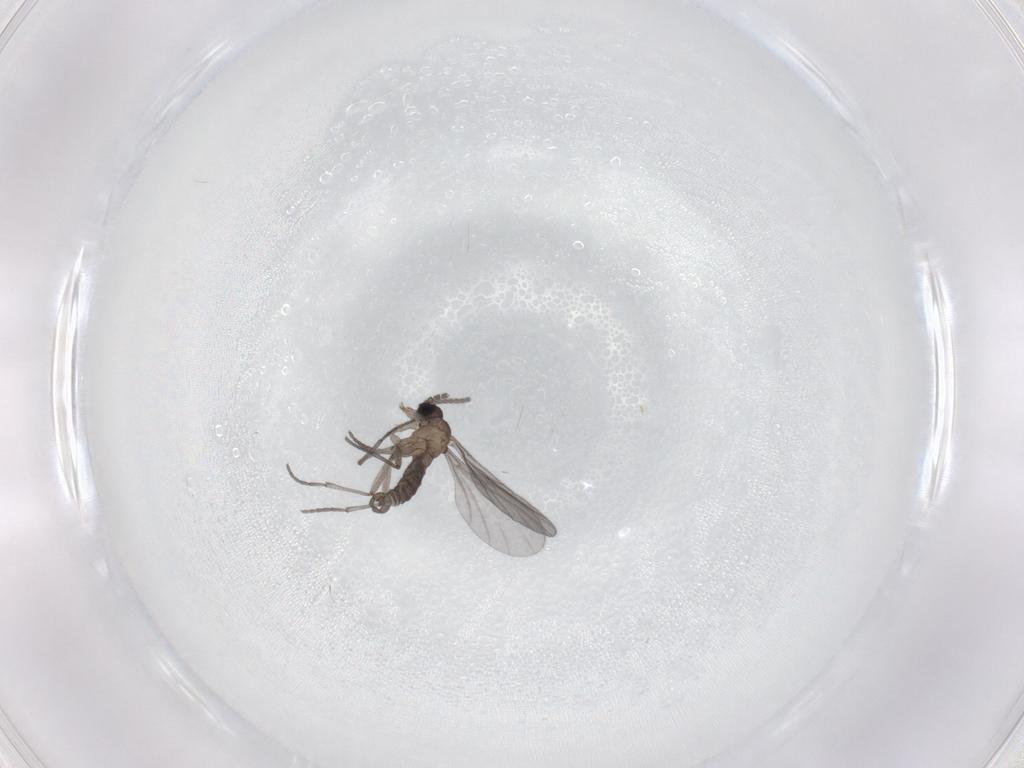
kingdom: Animalia
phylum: Arthropoda
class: Insecta
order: Diptera
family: Sciaridae
